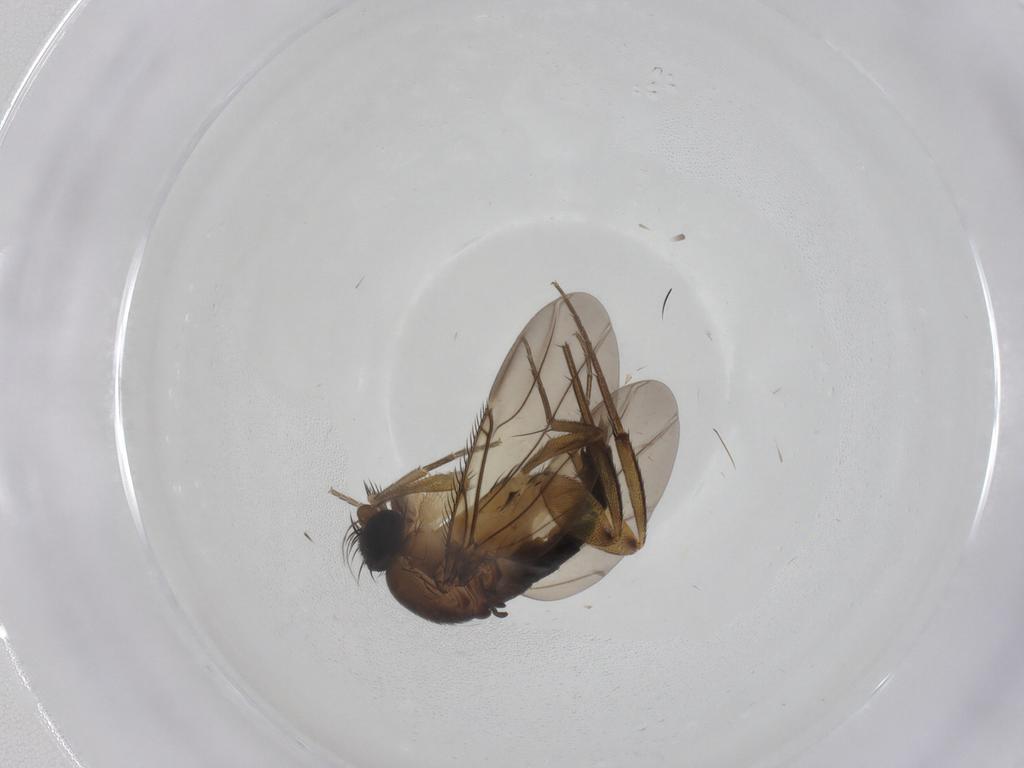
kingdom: Animalia
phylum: Arthropoda
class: Insecta
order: Diptera
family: Phoridae
